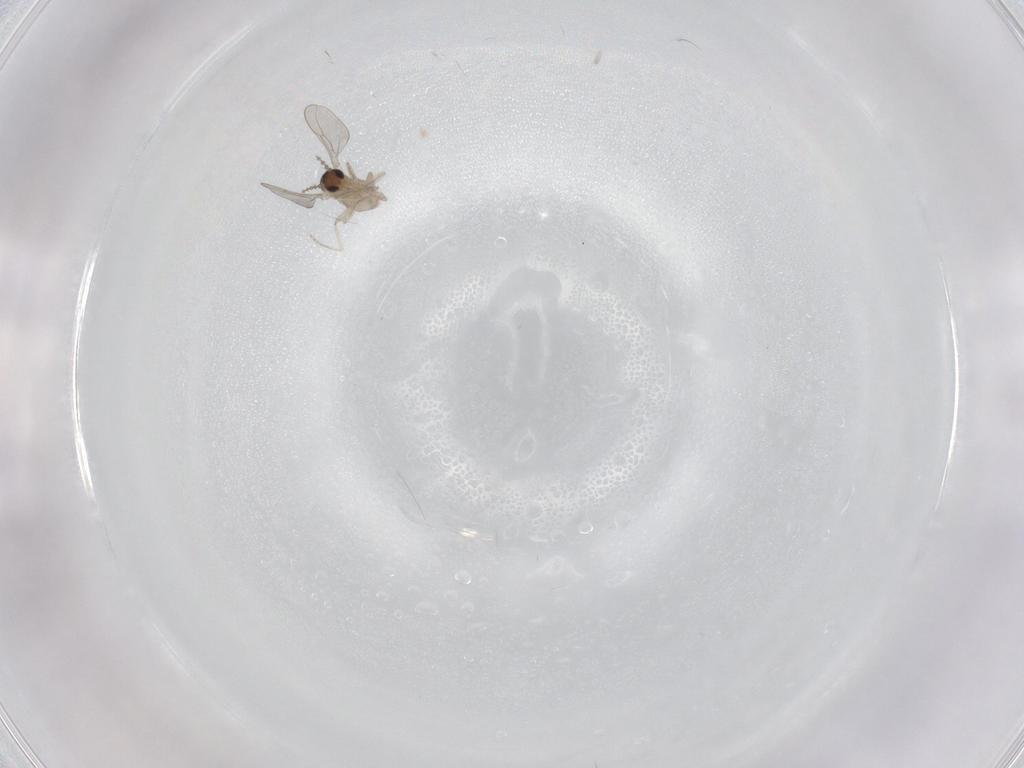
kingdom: Animalia
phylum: Arthropoda
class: Insecta
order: Diptera
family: Cecidomyiidae
